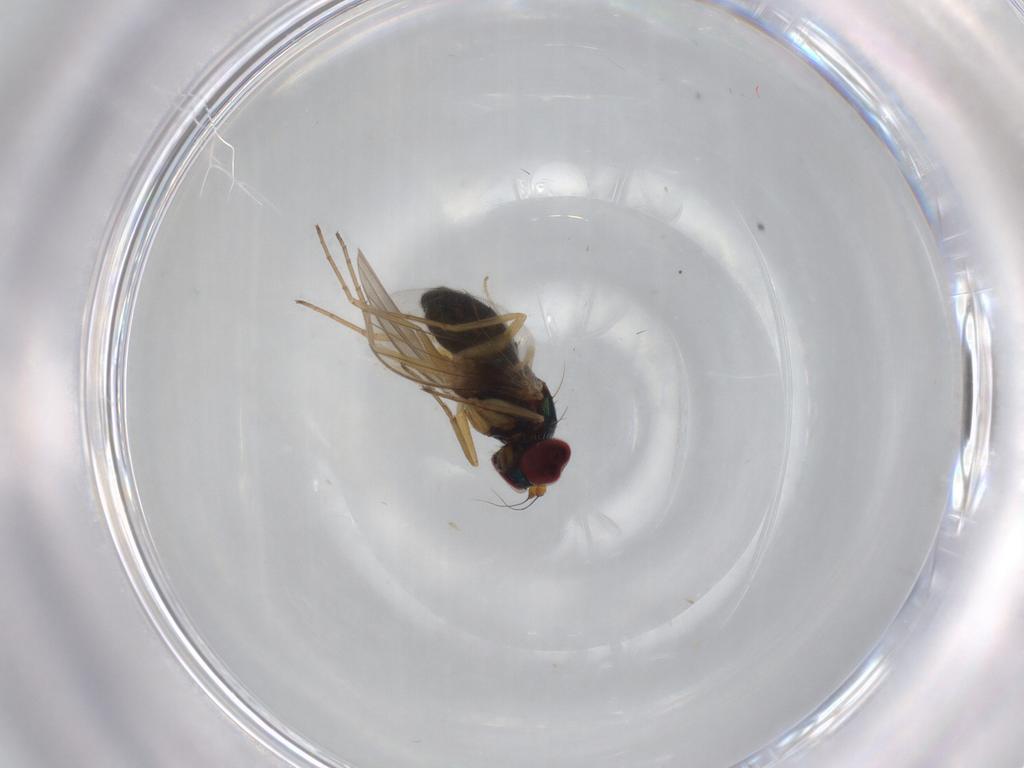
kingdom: Animalia
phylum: Arthropoda
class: Insecta
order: Diptera
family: Chironomidae
